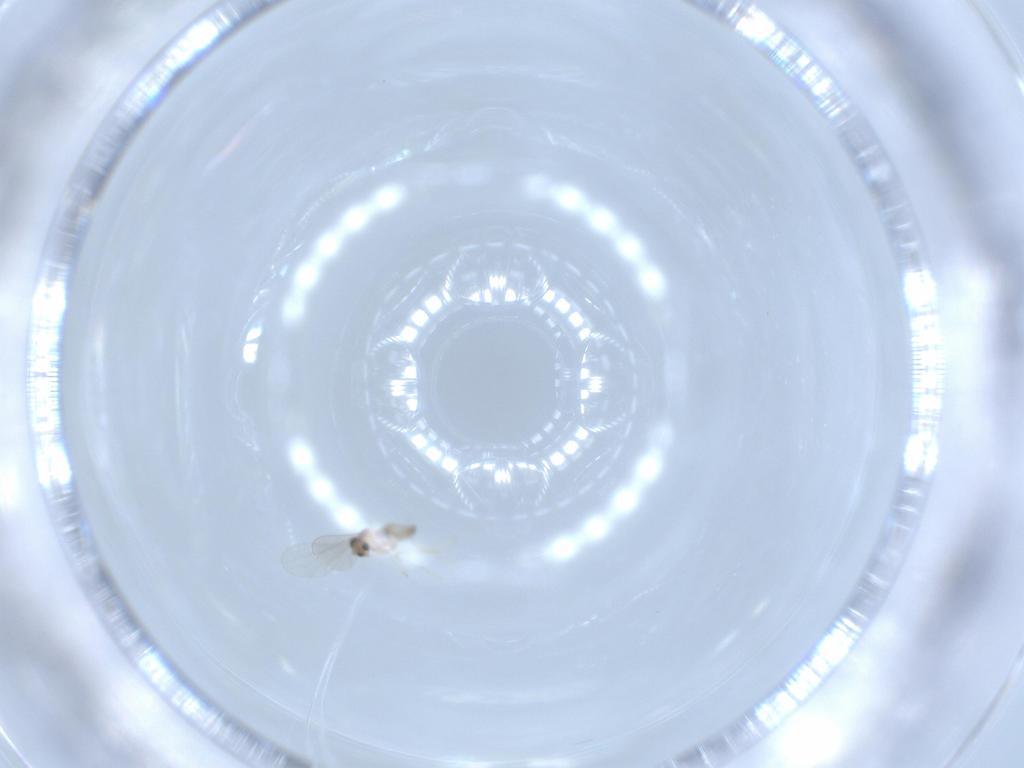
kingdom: Animalia
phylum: Arthropoda
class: Insecta
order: Diptera
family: Cecidomyiidae
